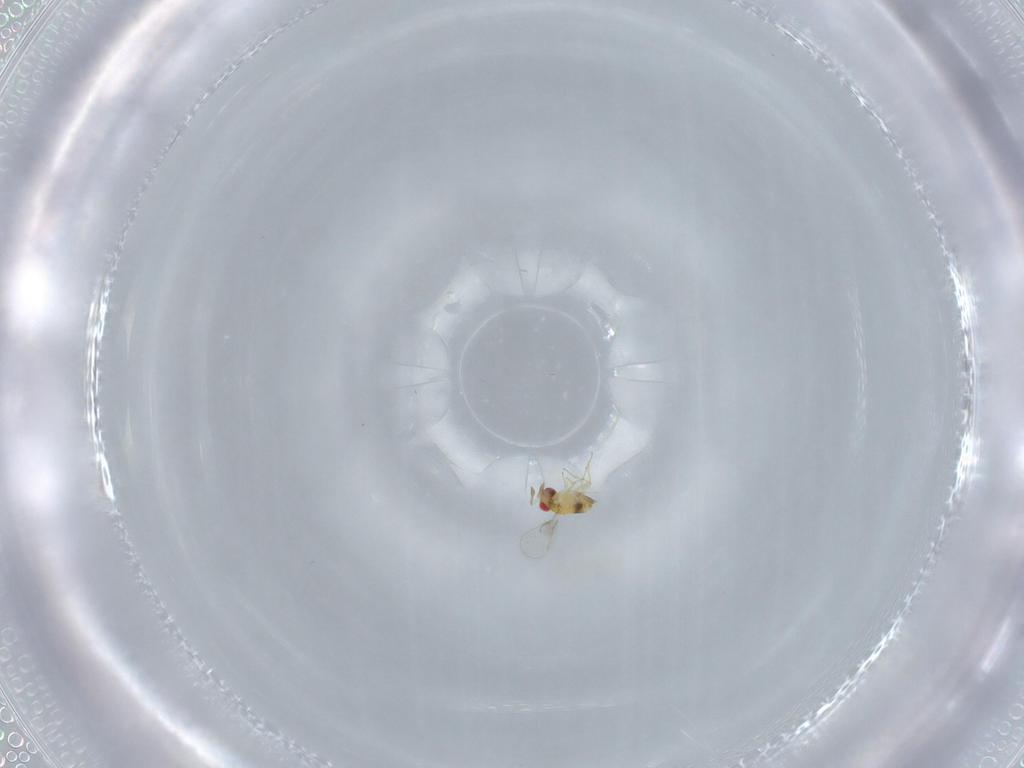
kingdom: Animalia
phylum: Arthropoda
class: Insecta
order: Hymenoptera
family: Trichogrammatidae
